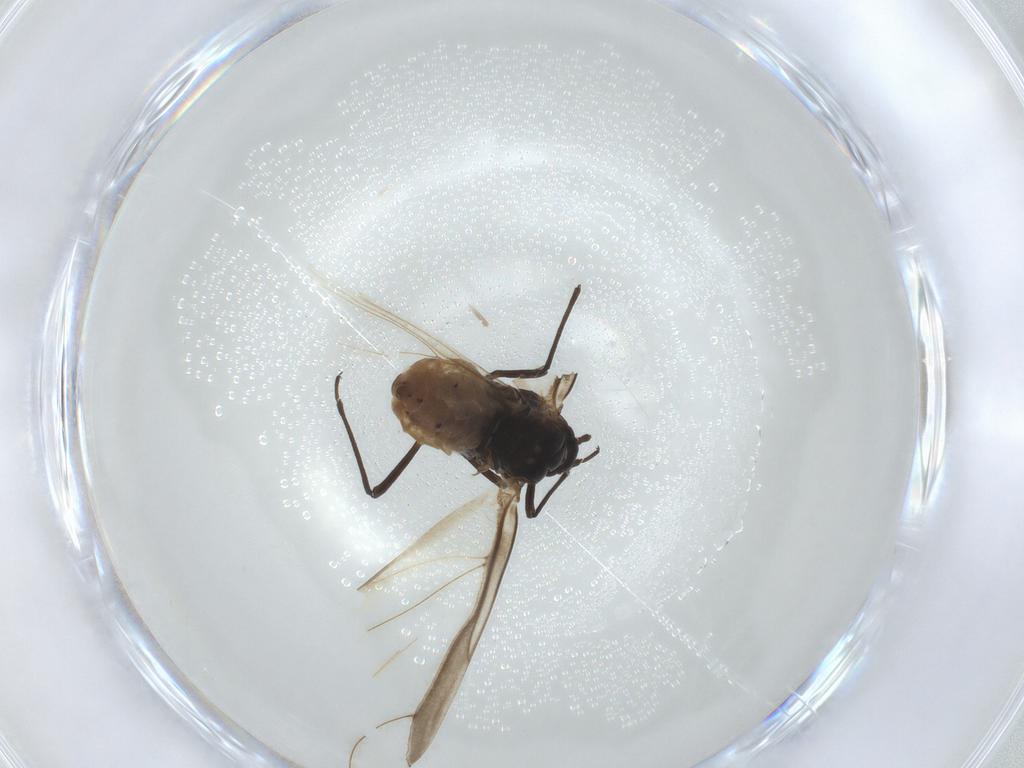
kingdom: Animalia
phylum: Arthropoda
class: Insecta
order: Hemiptera
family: Aphididae
